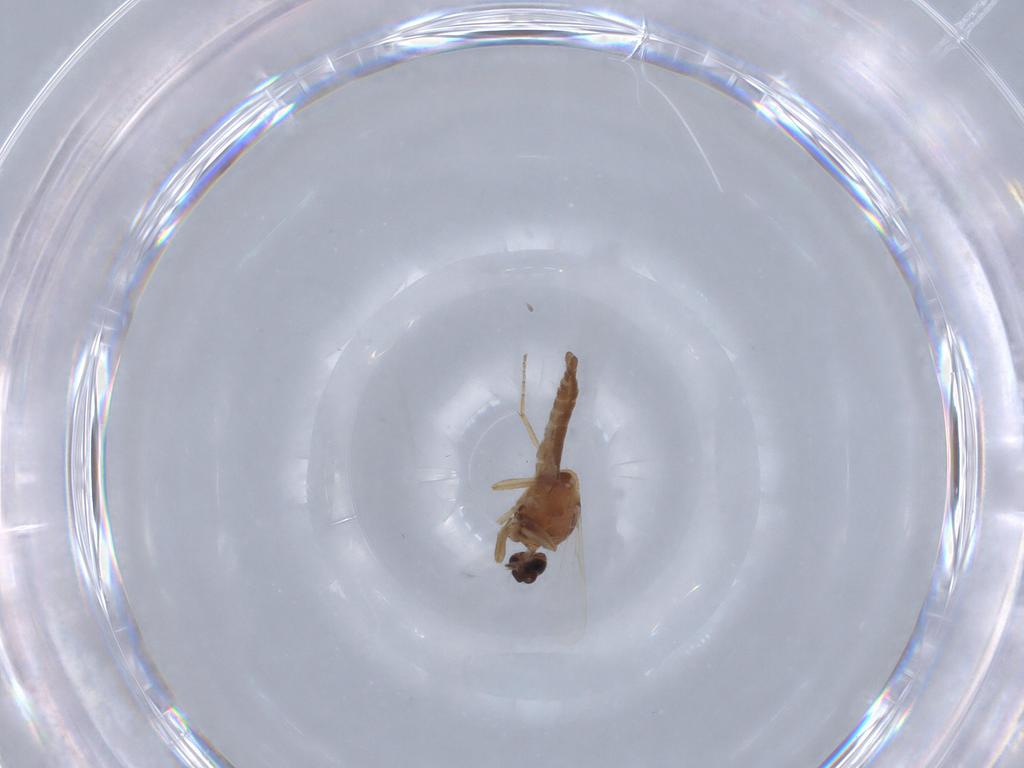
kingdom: Animalia
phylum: Arthropoda
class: Insecta
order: Diptera
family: Ceratopogonidae
